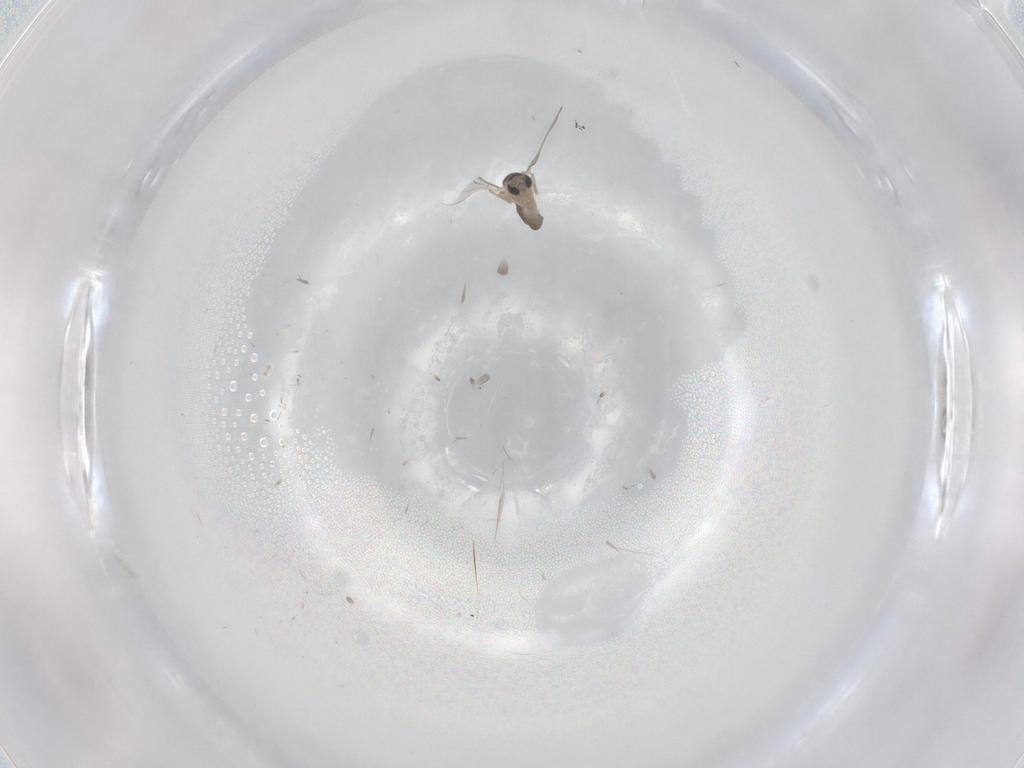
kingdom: Animalia
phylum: Arthropoda
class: Insecta
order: Diptera
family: Cecidomyiidae
